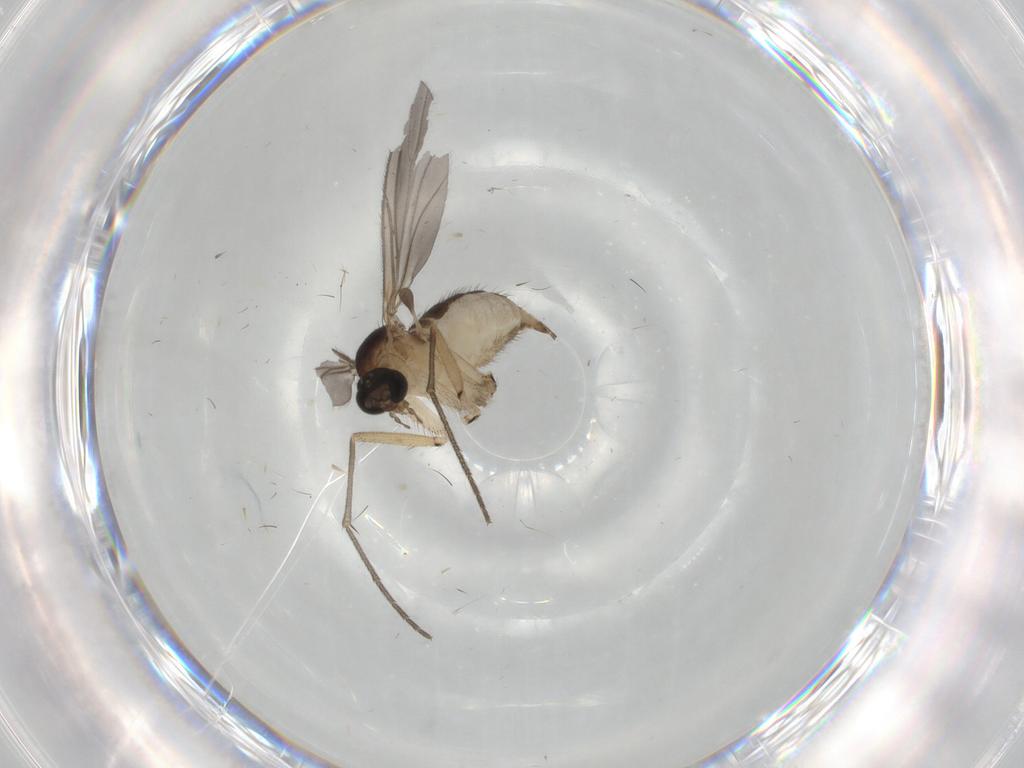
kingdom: Animalia
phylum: Arthropoda
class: Insecta
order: Diptera
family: Sciaridae
